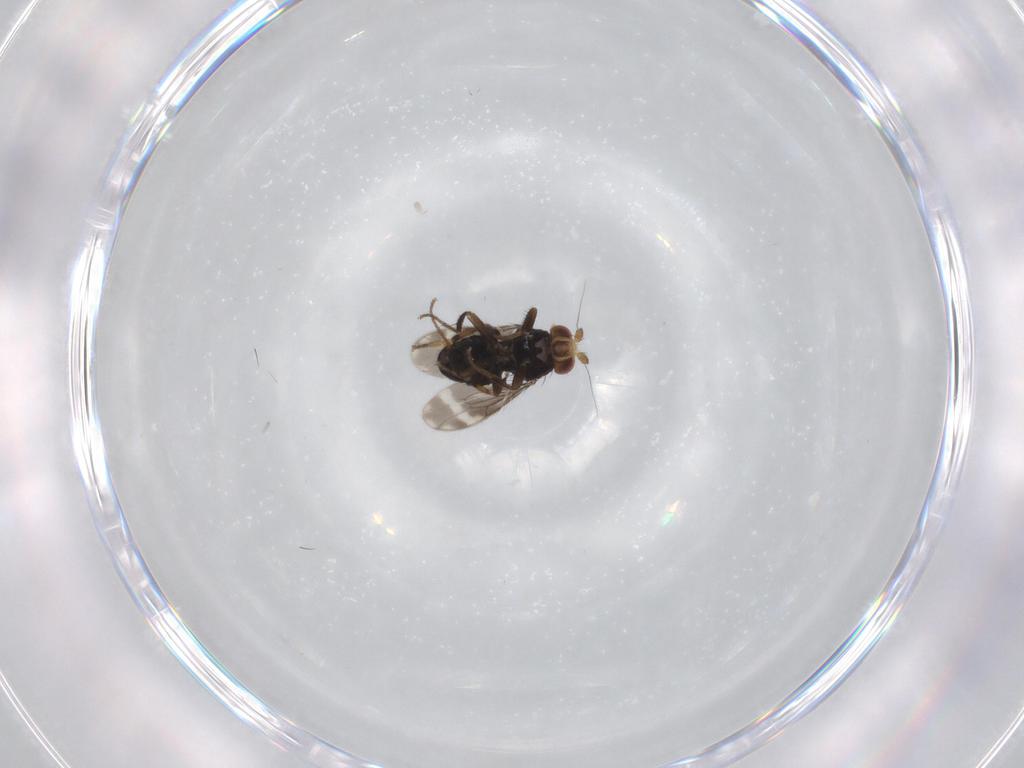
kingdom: Animalia
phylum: Arthropoda
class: Insecta
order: Diptera
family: Sphaeroceridae
